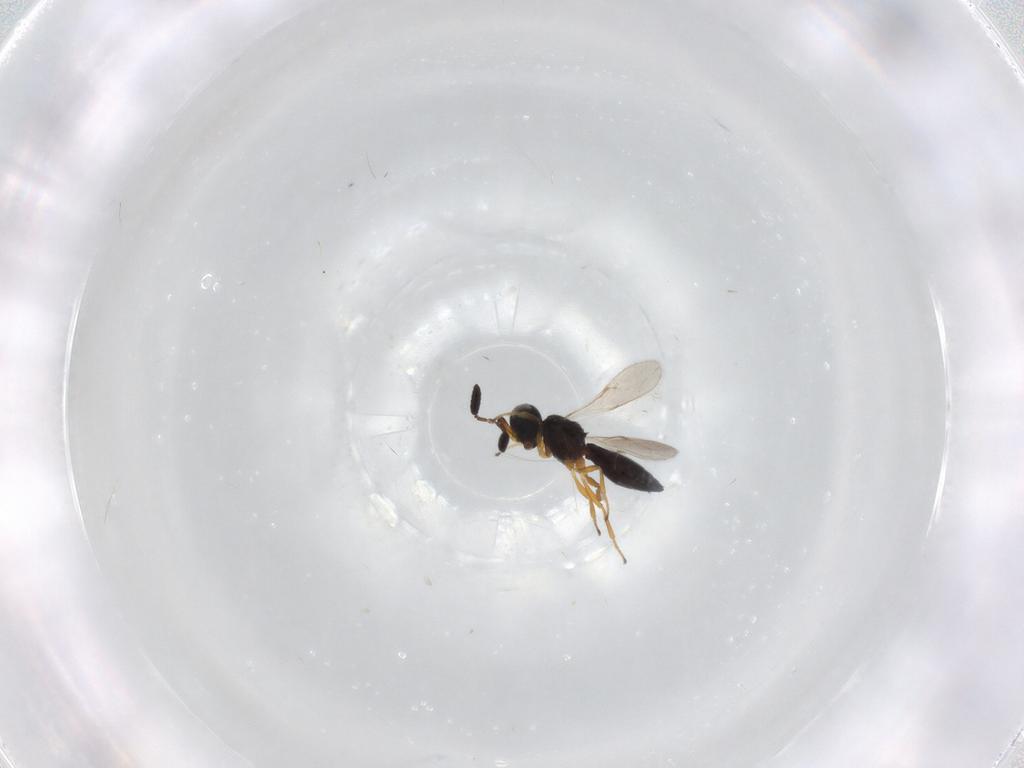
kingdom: Animalia
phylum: Arthropoda
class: Insecta
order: Hymenoptera
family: Scelionidae
